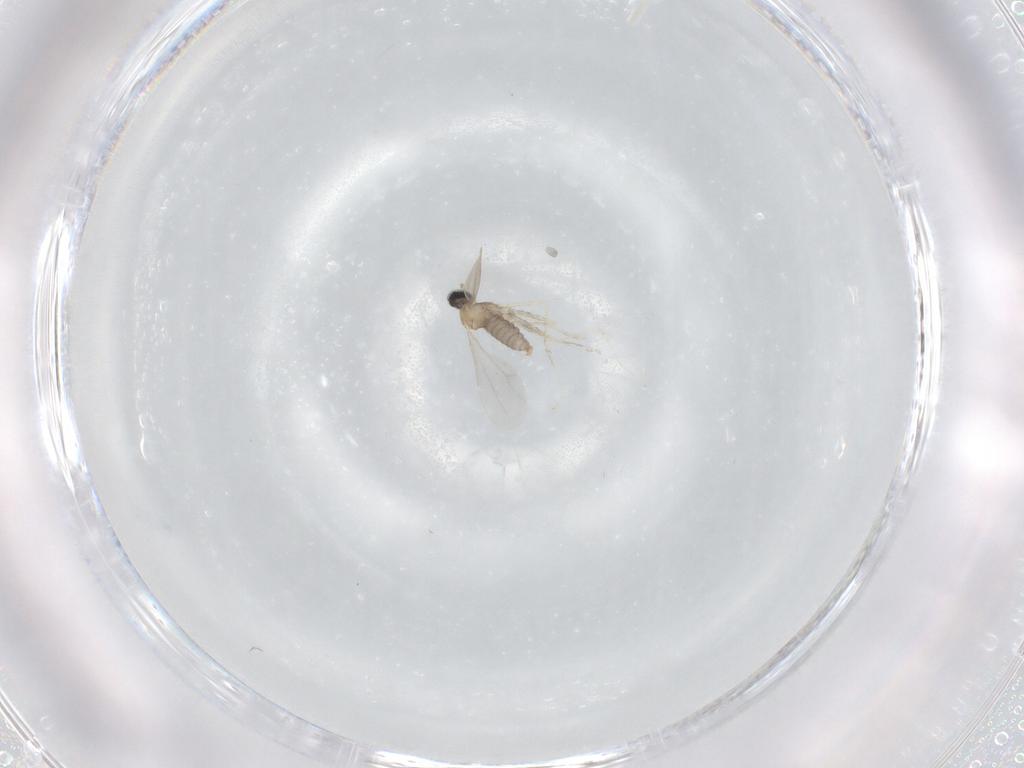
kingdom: Animalia
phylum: Arthropoda
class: Insecta
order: Diptera
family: Cecidomyiidae
